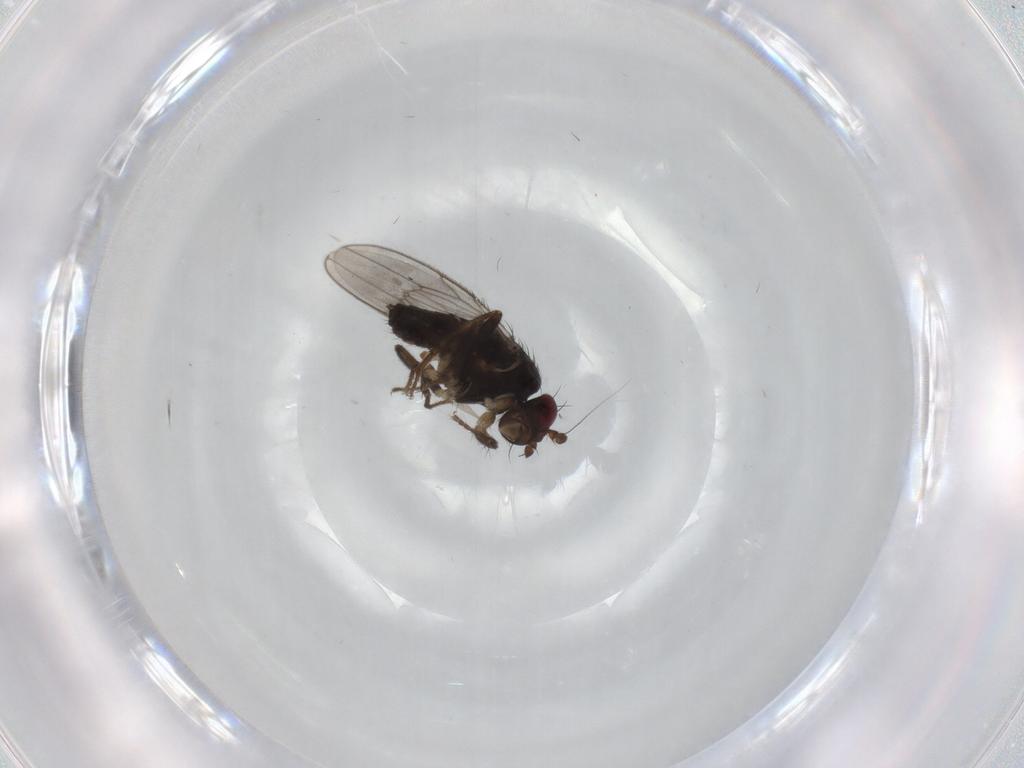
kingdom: Animalia
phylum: Arthropoda
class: Insecta
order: Diptera
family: Sphaeroceridae
